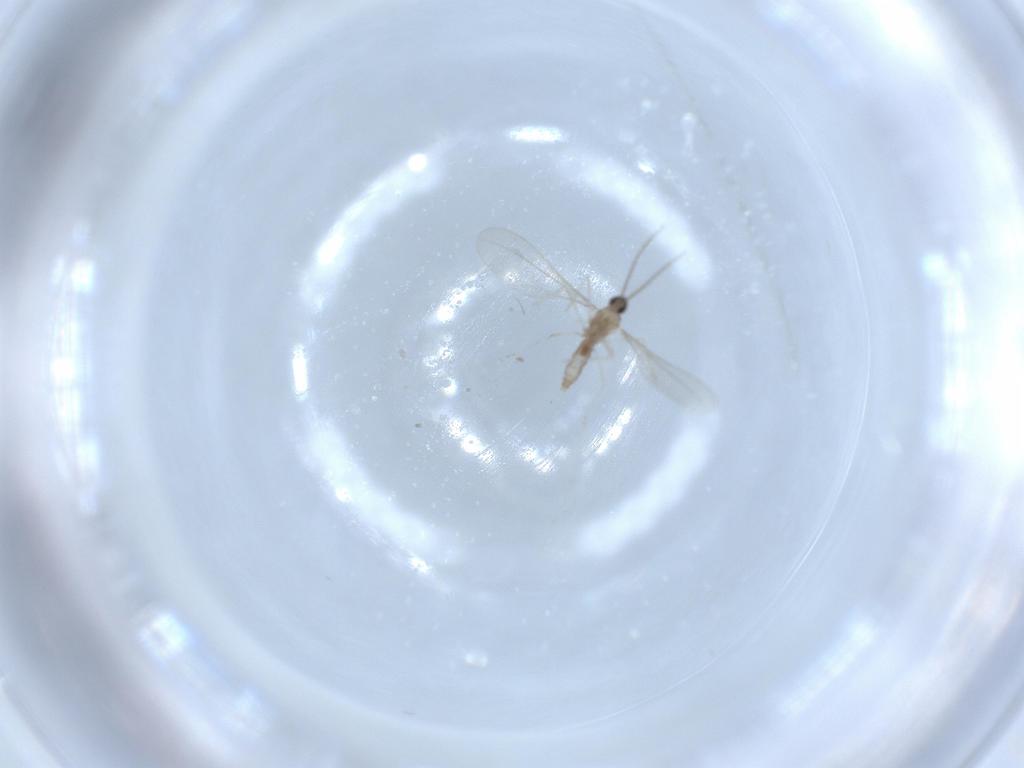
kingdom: Animalia
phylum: Arthropoda
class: Insecta
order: Diptera
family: Cecidomyiidae
